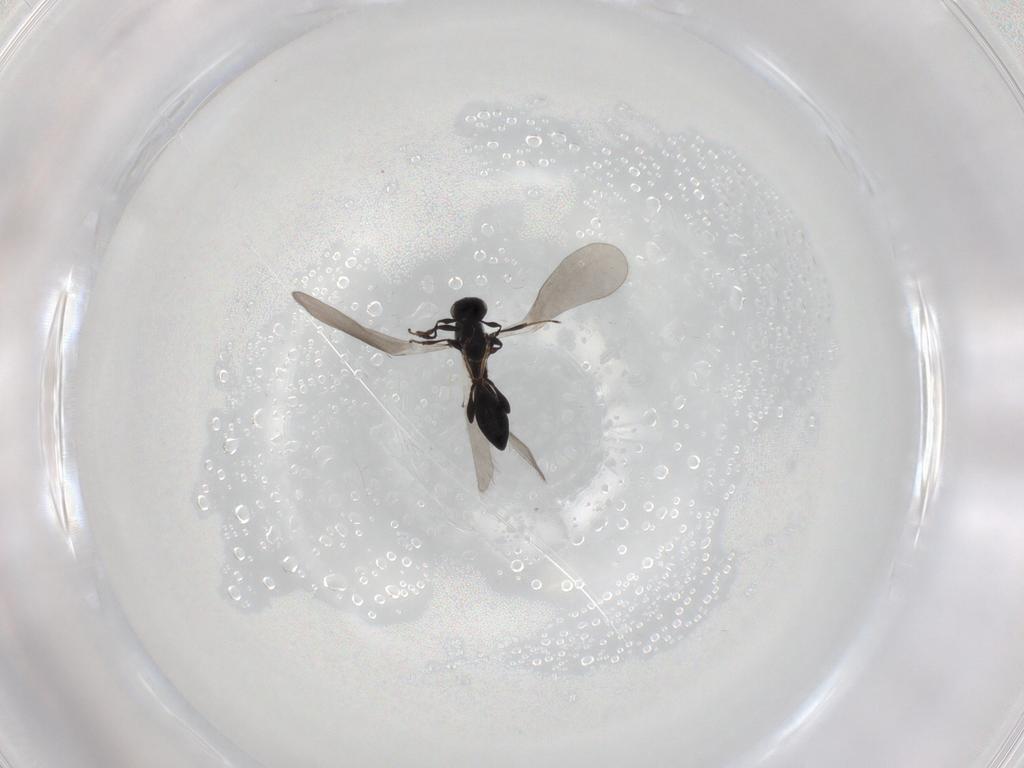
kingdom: Animalia
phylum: Arthropoda
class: Insecta
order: Hymenoptera
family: Platygastridae
